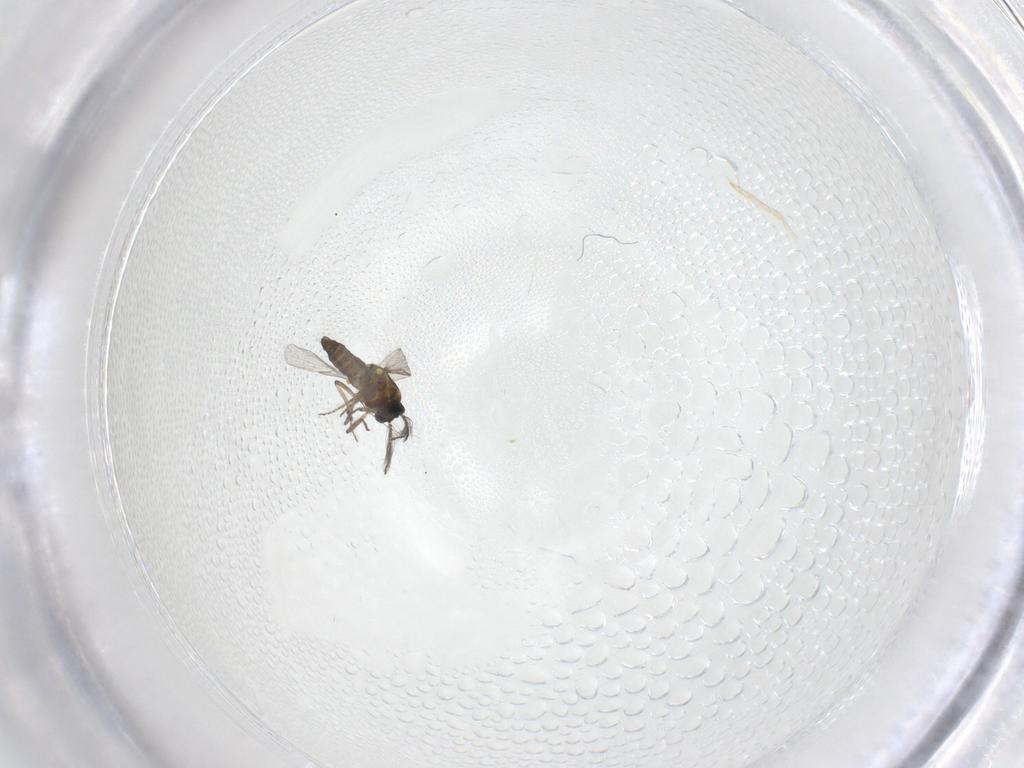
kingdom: Animalia
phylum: Arthropoda
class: Insecta
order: Diptera
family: Ceratopogonidae
